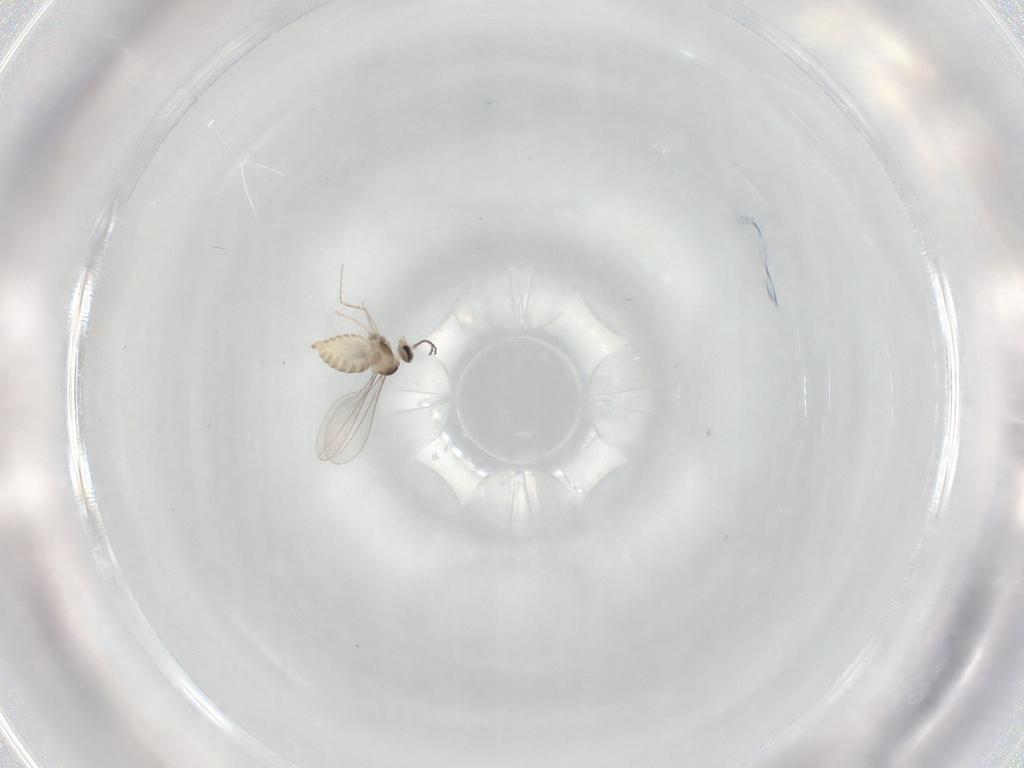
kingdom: Animalia
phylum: Arthropoda
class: Insecta
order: Diptera
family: Cecidomyiidae
